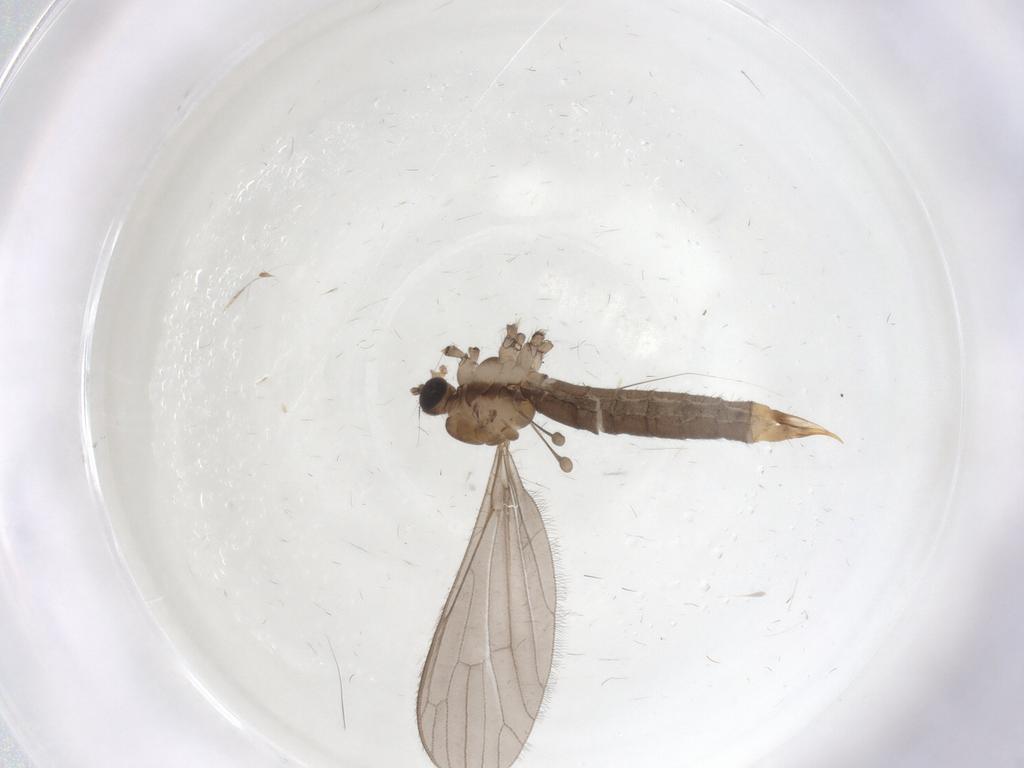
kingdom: Animalia
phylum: Arthropoda
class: Insecta
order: Diptera
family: Limoniidae
